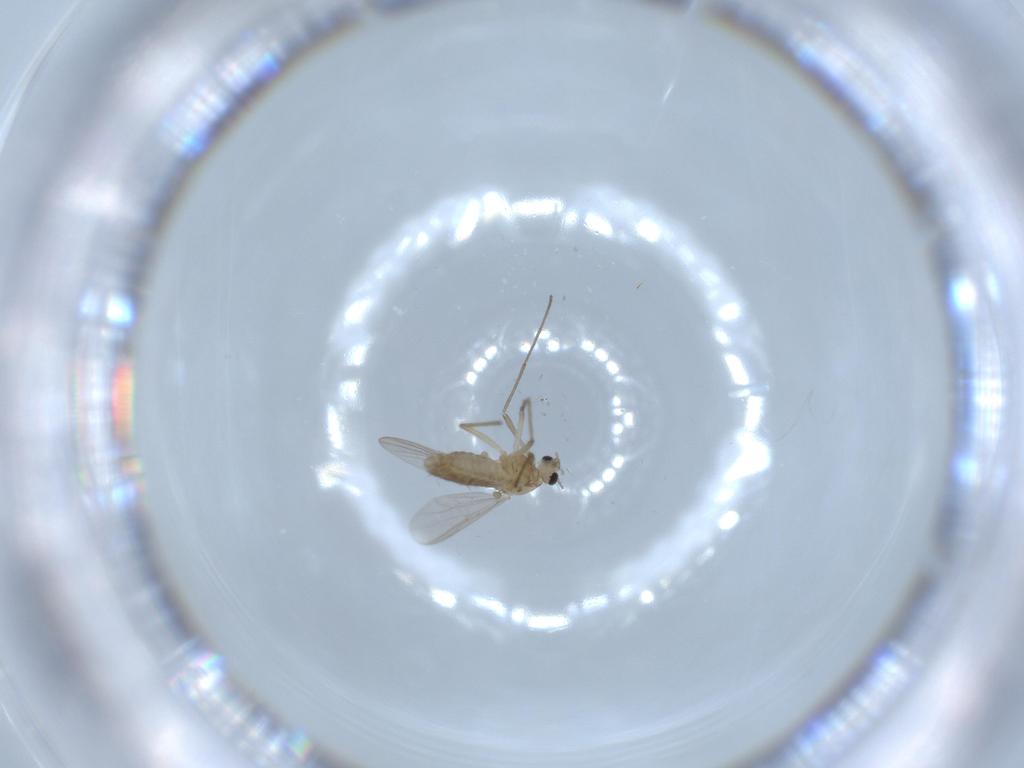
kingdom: Animalia
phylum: Arthropoda
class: Insecta
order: Diptera
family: Chironomidae
